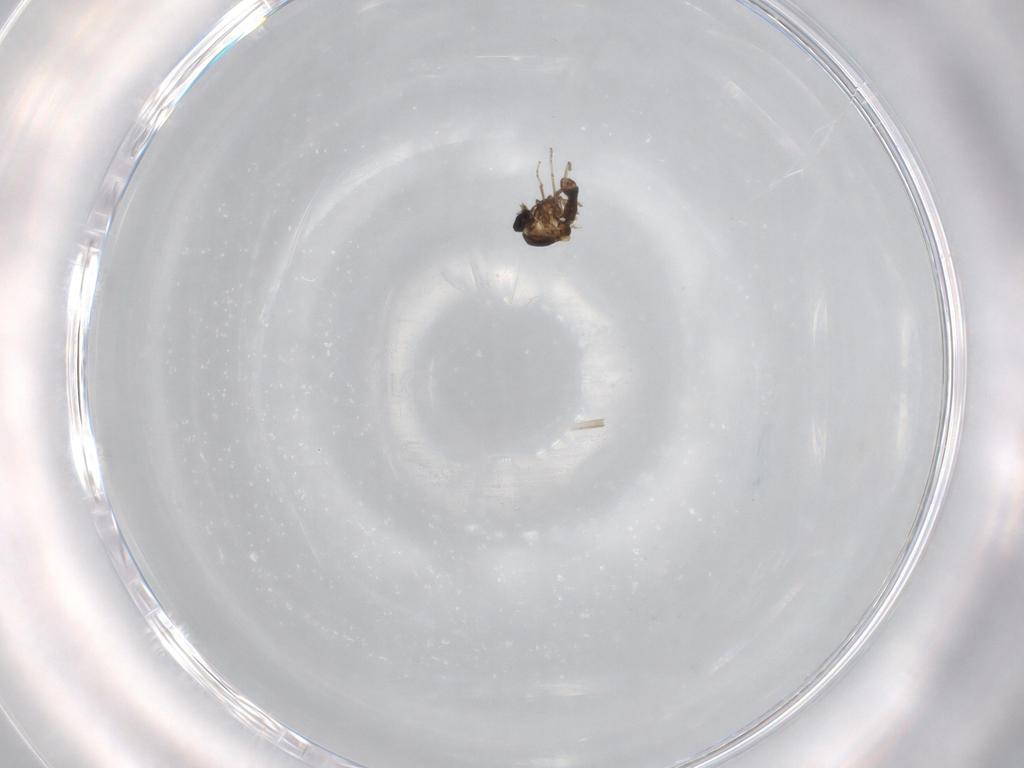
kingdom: Animalia
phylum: Arthropoda
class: Insecta
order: Diptera
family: Ceratopogonidae
